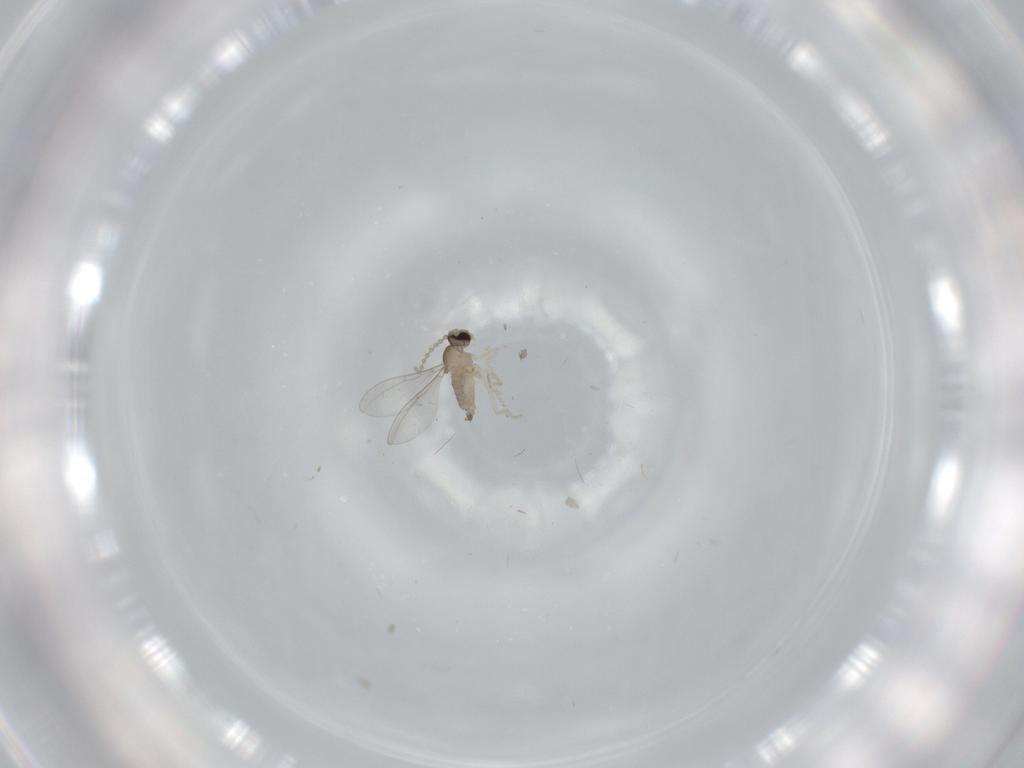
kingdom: Animalia
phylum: Arthropoda
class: Insecta
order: Diptera
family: Cecidomyiidae
